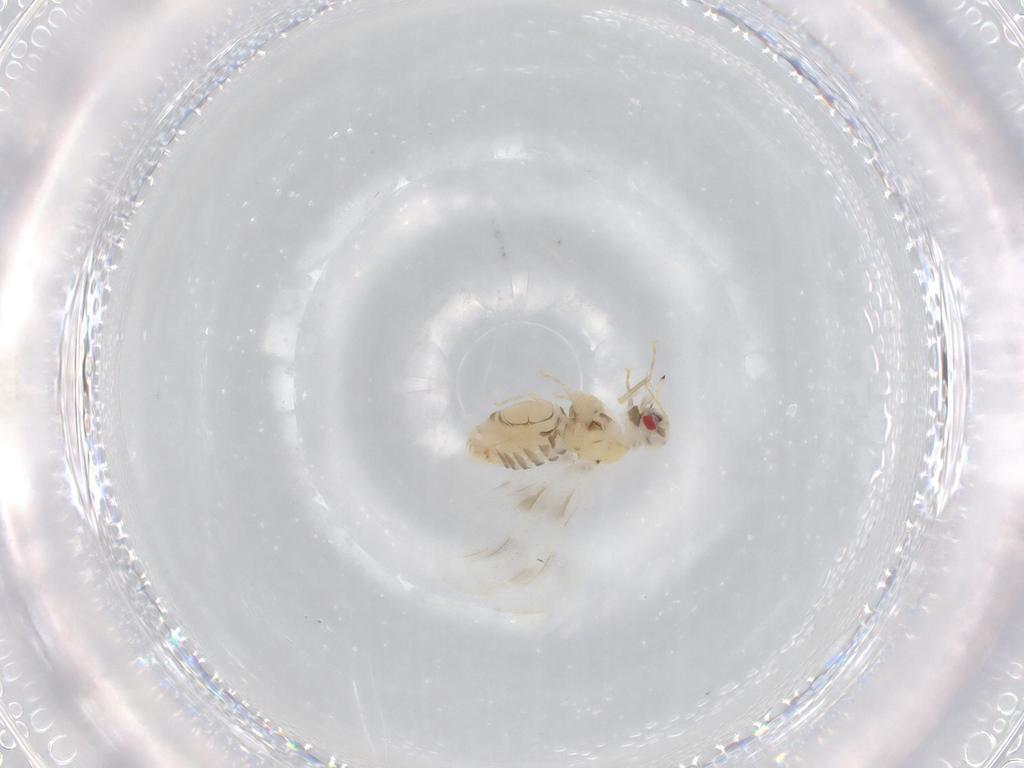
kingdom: Animalia
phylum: Arthropoda
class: Insecta
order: Hemiptera
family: Aleyrodidae
